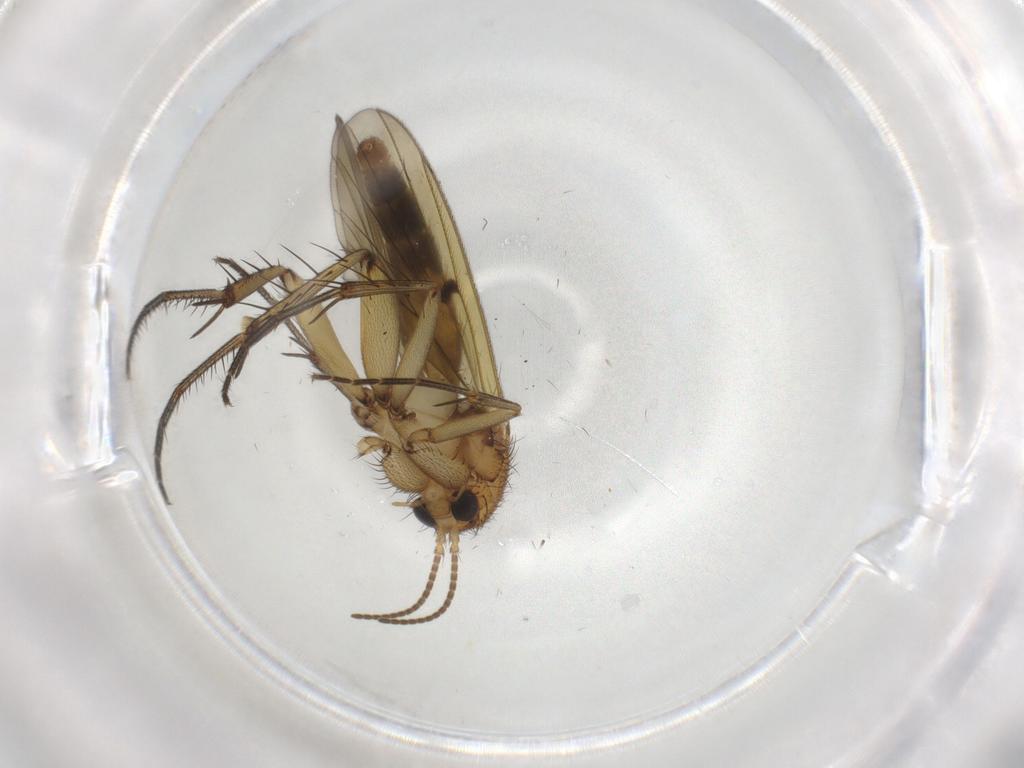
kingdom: Animalia
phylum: Arthropoda
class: Insecta
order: Diptera
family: Mycetophilidae
